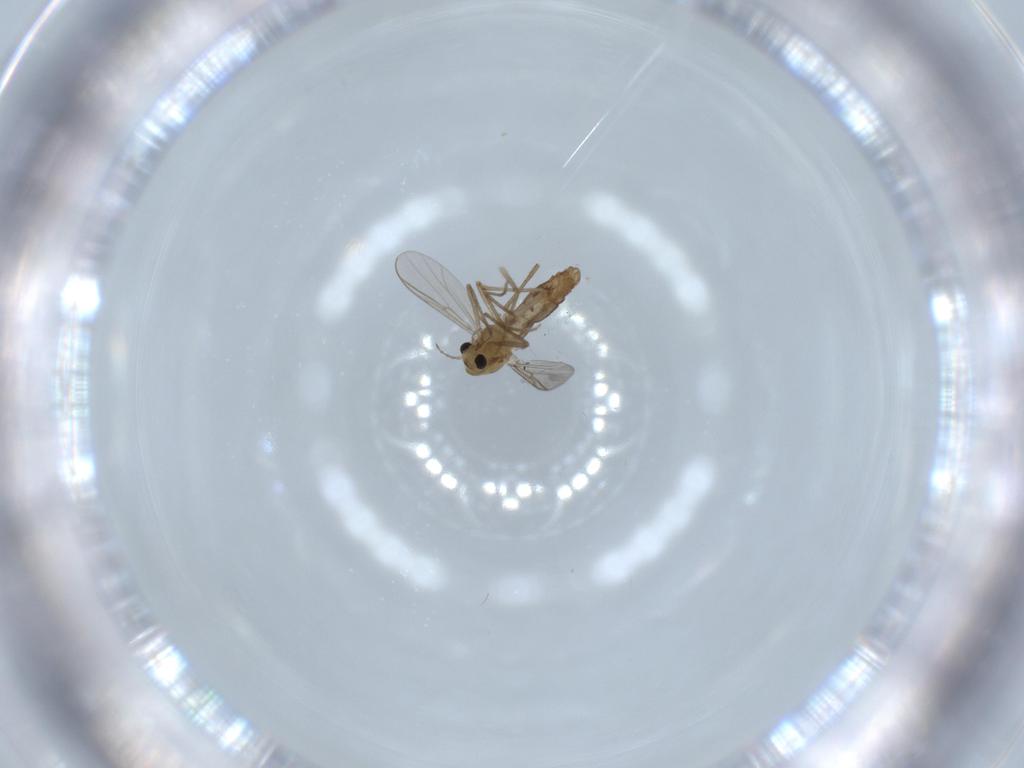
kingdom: Animalia
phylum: Arthropoda
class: Insecta
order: Diptera
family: Chironomidae
